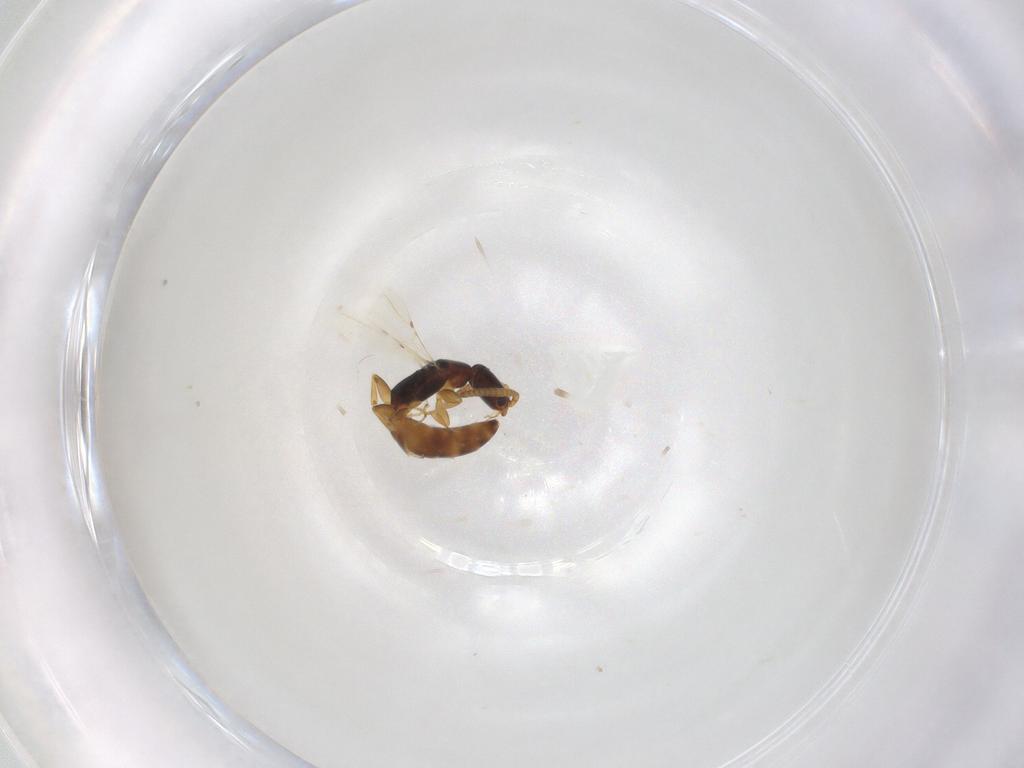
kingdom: Animalia
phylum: Arthropoda
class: Insecta
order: Hymenoptera
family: Bethylidae
